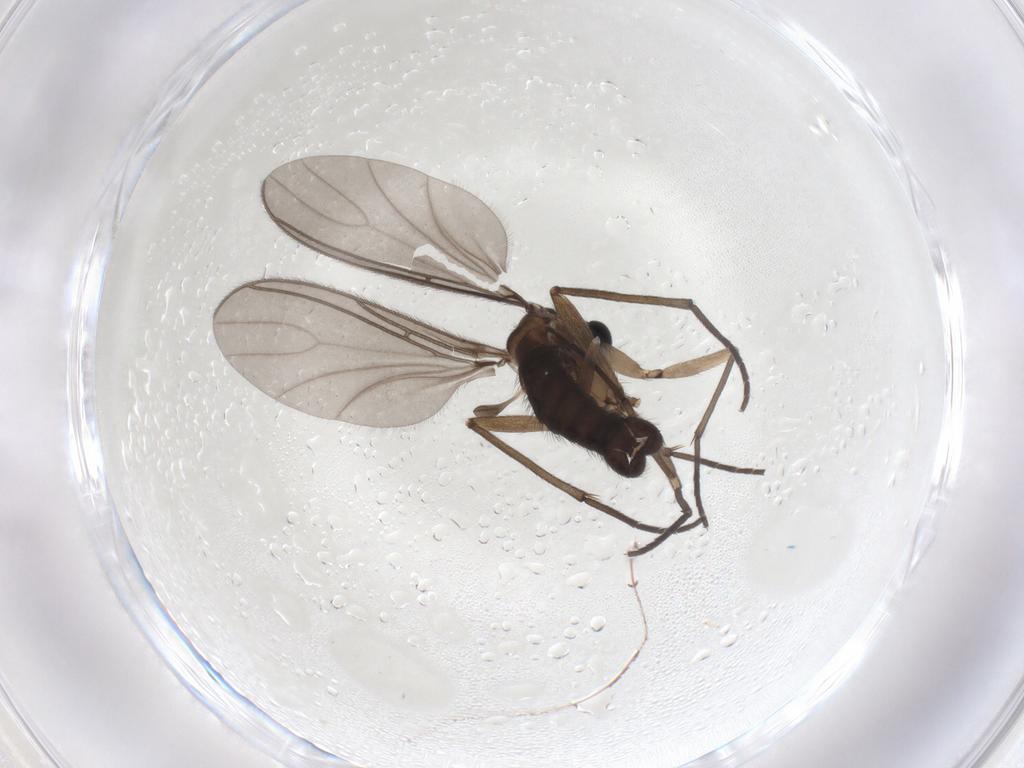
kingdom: Animalia
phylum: Arthropoda
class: Insecta
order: Diptera
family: Sciaridae
